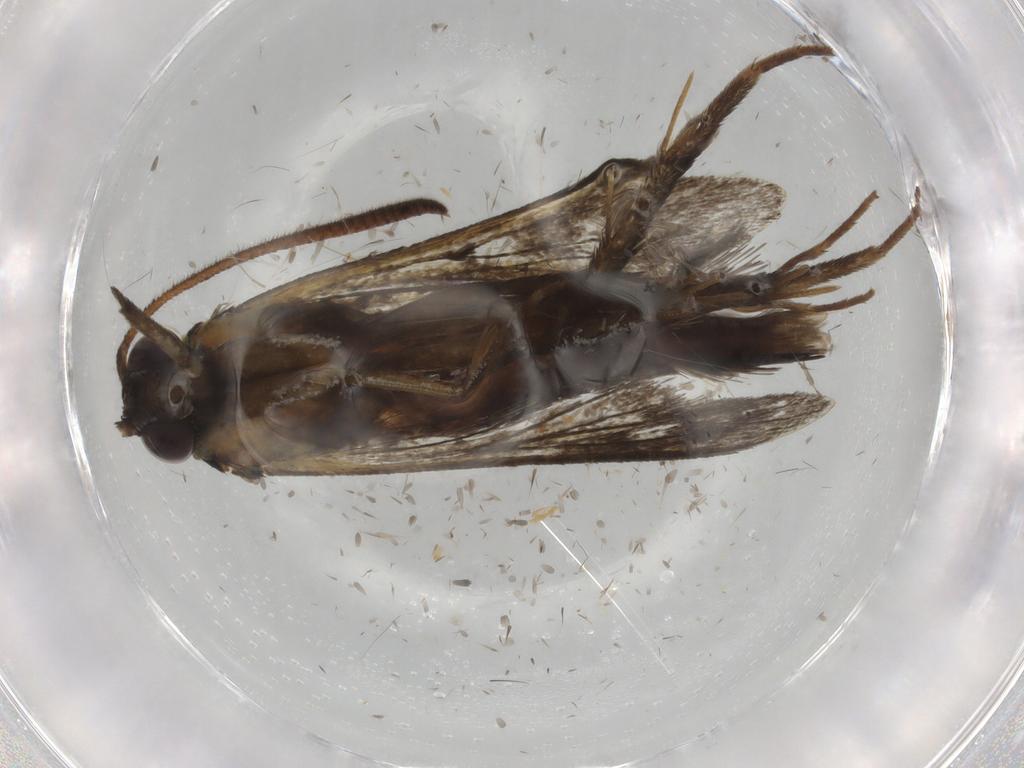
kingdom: Animalia
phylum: Arthropoda
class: Insecta
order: Lepidoptera
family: Sesiidae
